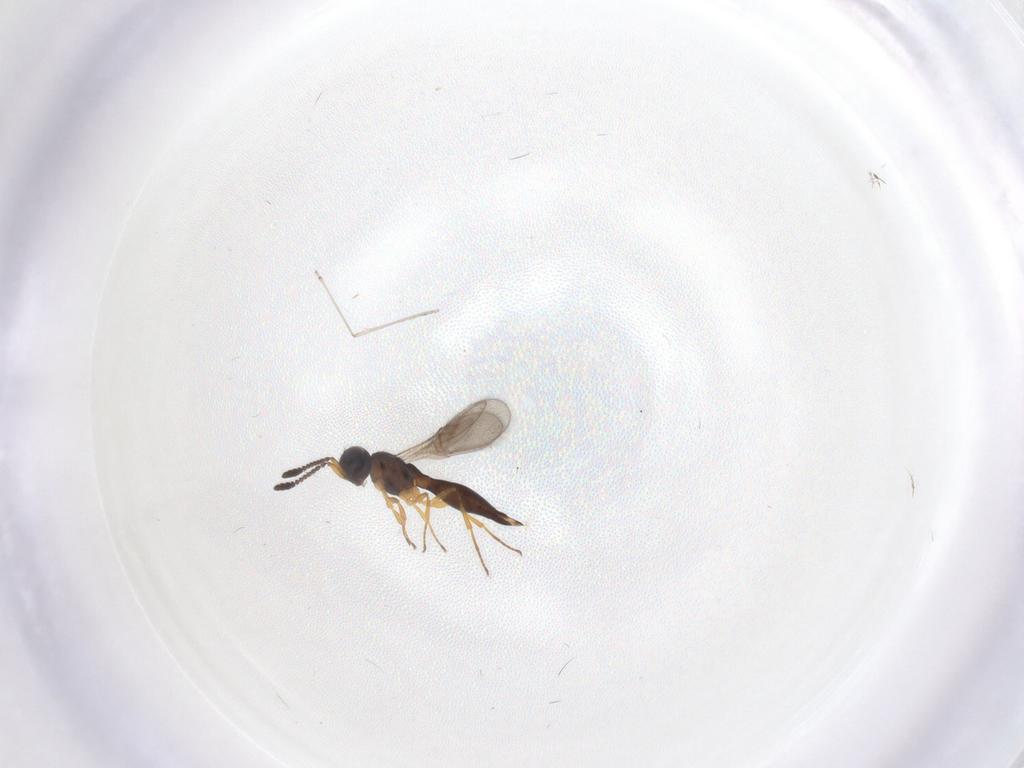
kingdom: Animalia
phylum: Arthropoda
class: Insecta
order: Hymenoptera
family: Scelionidae
